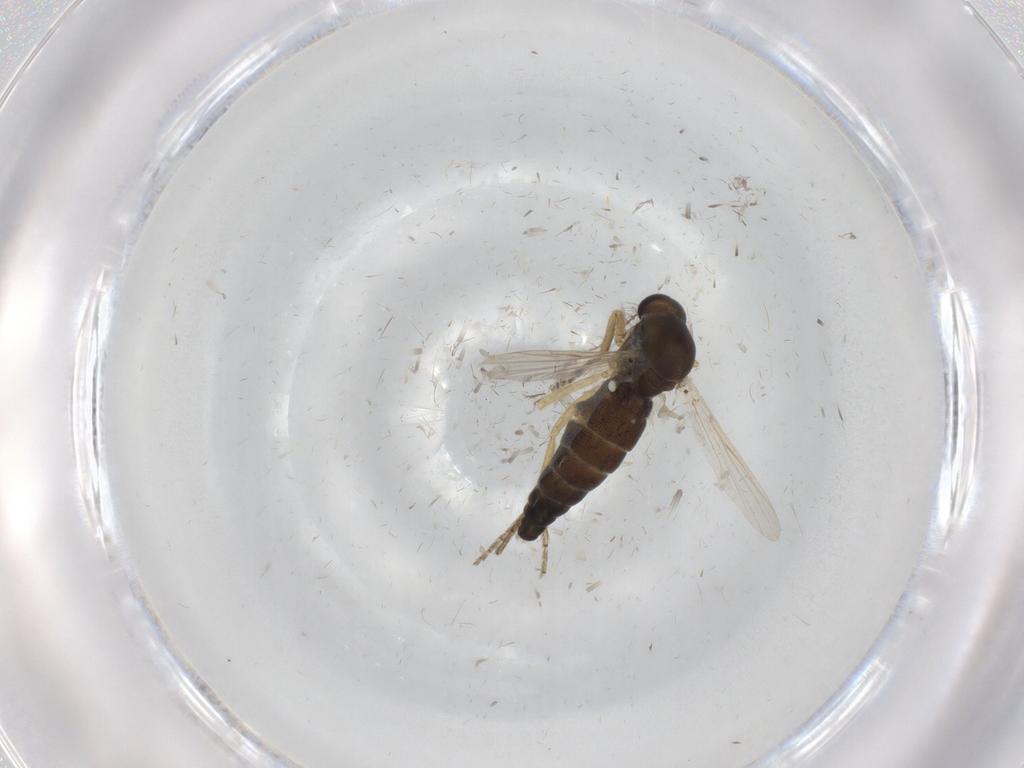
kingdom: Animalia
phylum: Arthropoda
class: Insecta
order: Diptera
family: Ceratopogonidae
